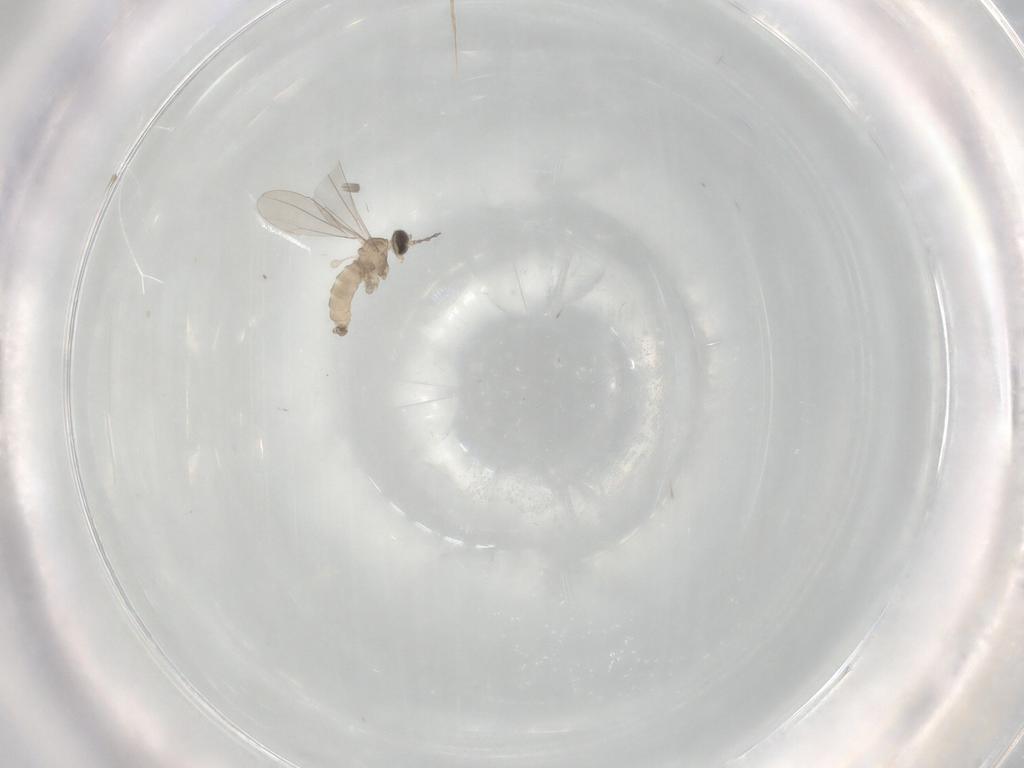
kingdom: Animalia
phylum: Arthropoda
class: Insecta
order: Diptera
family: Cecidomyiidae
